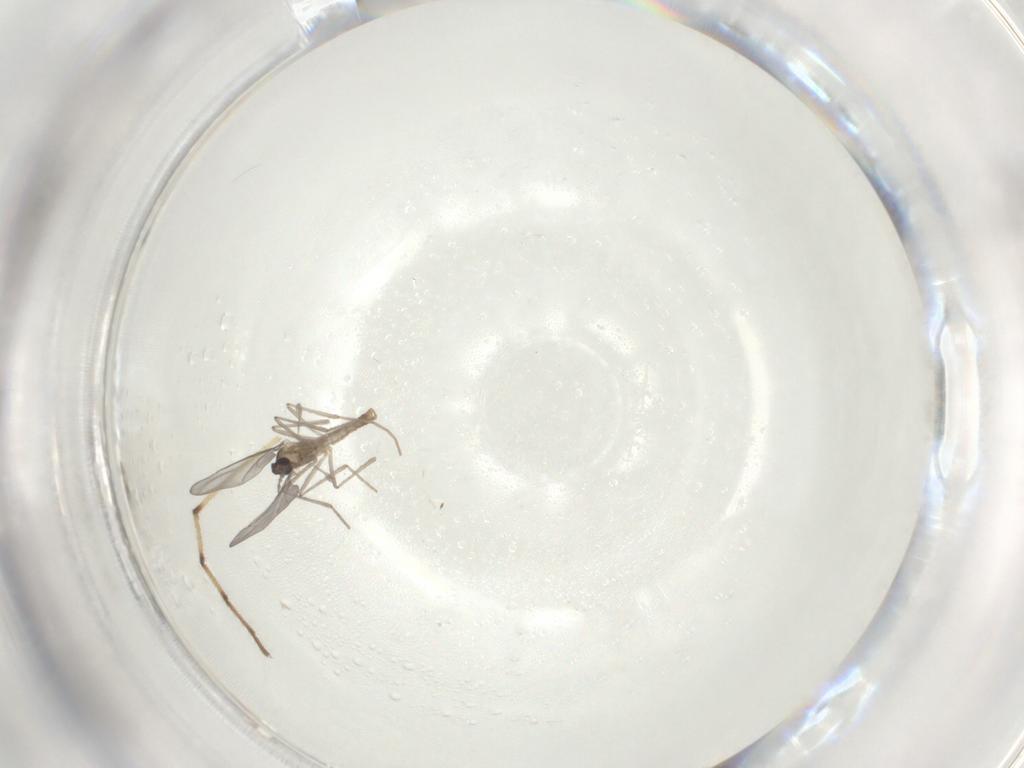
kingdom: Animalia
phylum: Arthropoda
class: Insecta
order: Diptera
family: Cecidomyiidae
